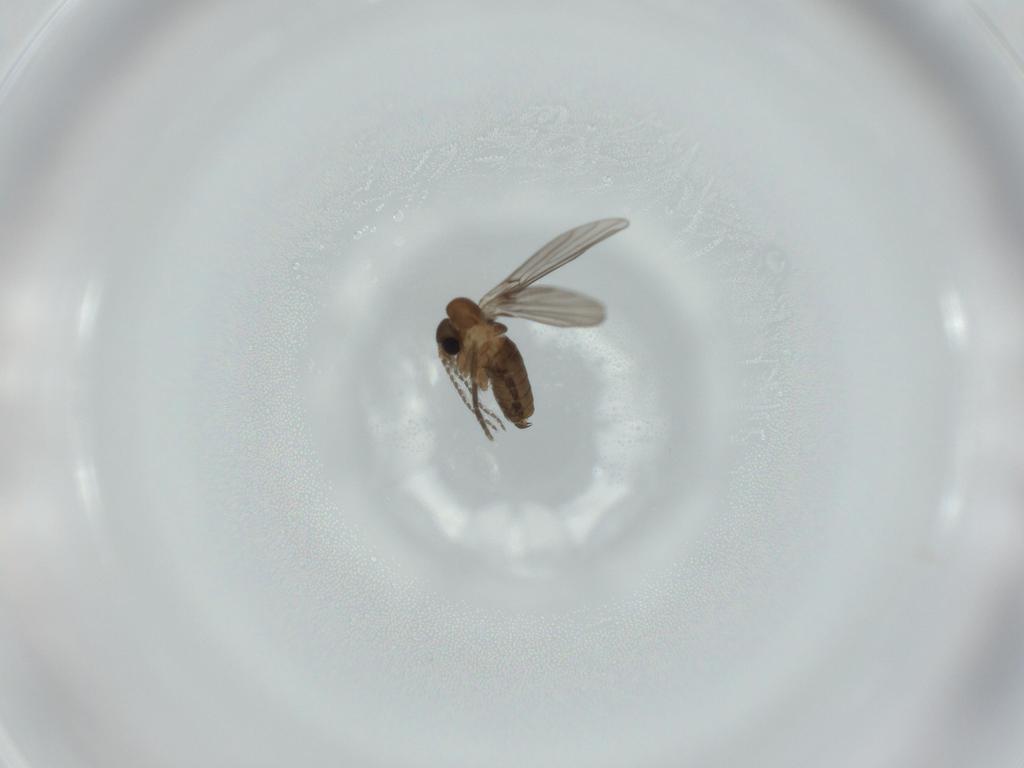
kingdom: Animalia
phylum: Arthropoda
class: Insecta
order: Diptera
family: Psychodidae
